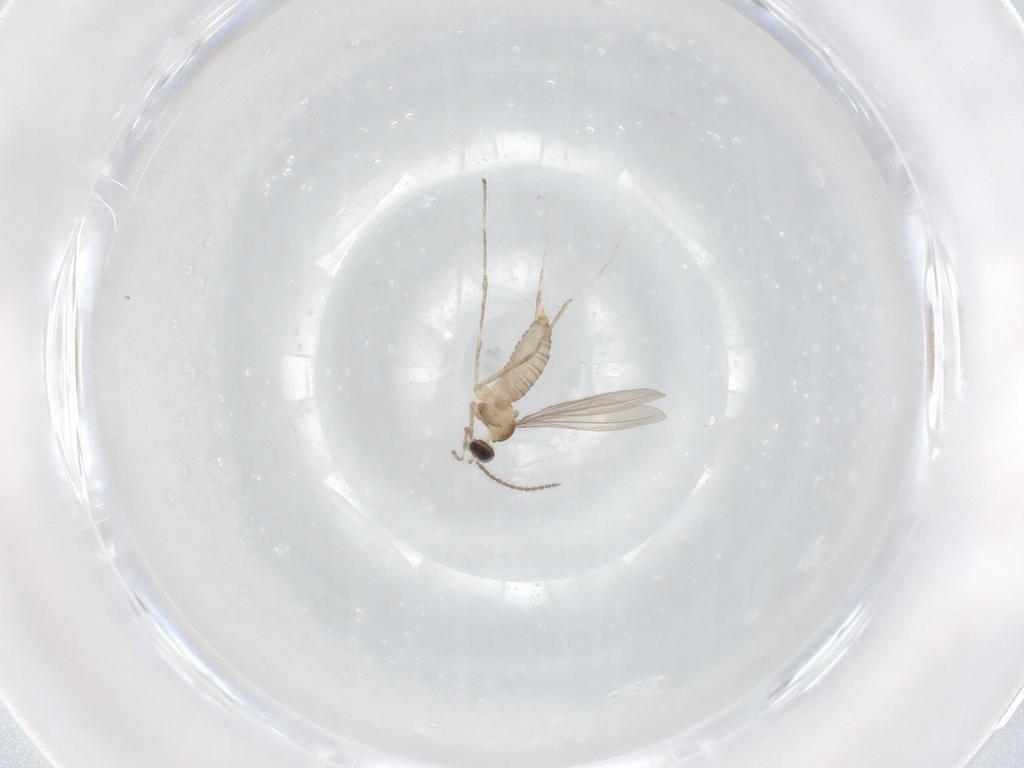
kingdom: Animalia
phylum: Arthropoda
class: Insecta
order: Diptera
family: Cecidomyiidae
